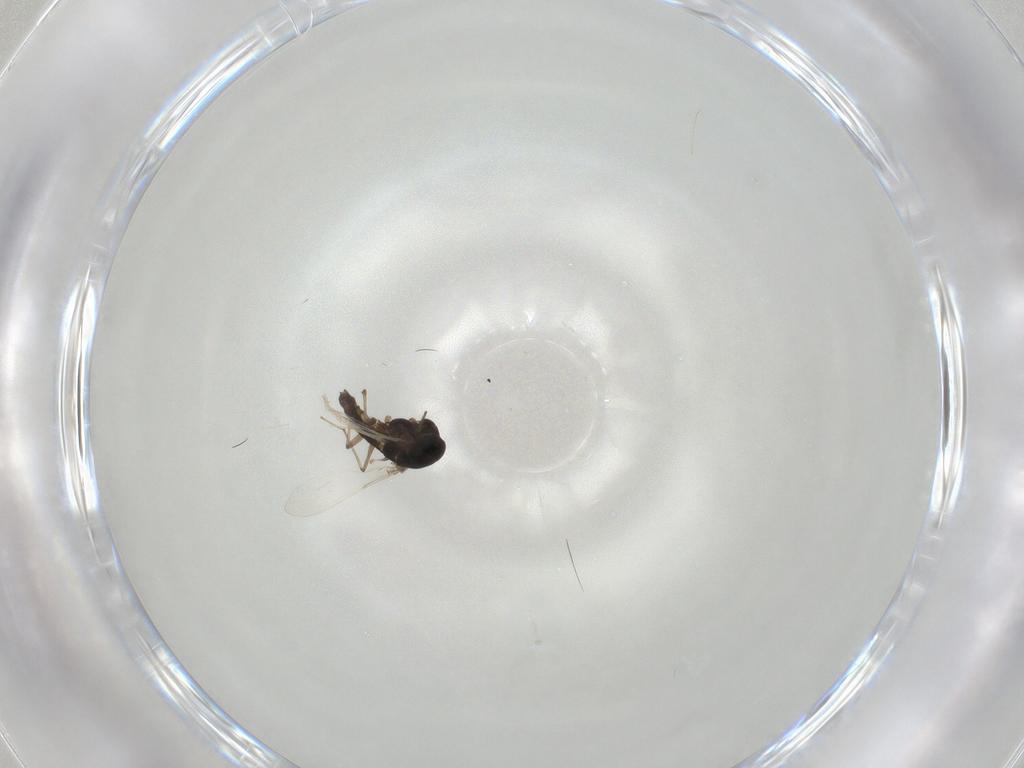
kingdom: Animalia
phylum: Arthropoda
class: Insecta
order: Diptera
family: Chironomidae
